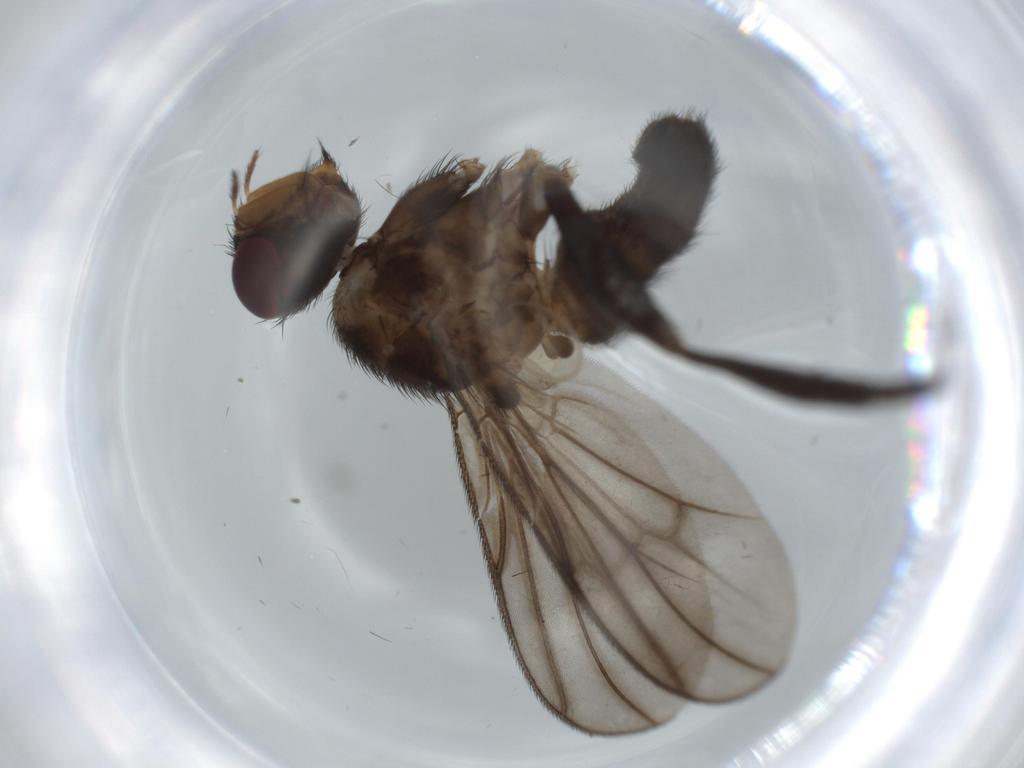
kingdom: Animalia
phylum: Arthropoda
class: Insecta
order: Diptera
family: Calliphoridae
